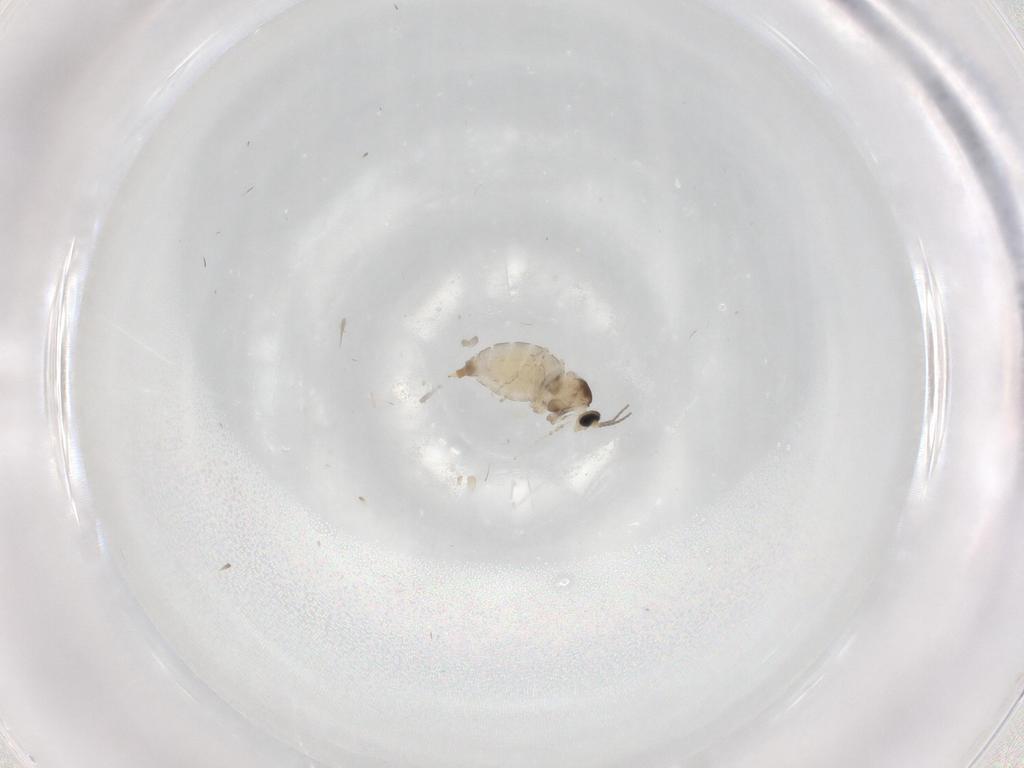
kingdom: Animalia
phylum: Arthropoda
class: Insecta
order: Diptera
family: Cecidomyiidae
